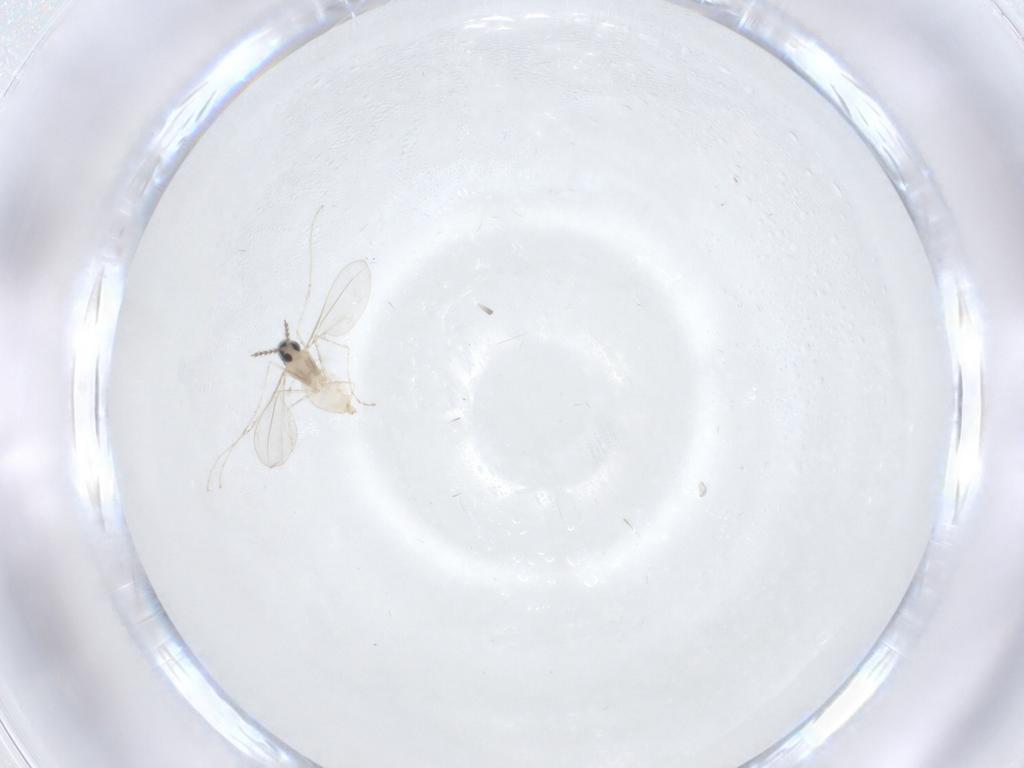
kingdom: Animalia
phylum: Arthropoda
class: Insecta
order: Diptera
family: Cecidomyiidae
